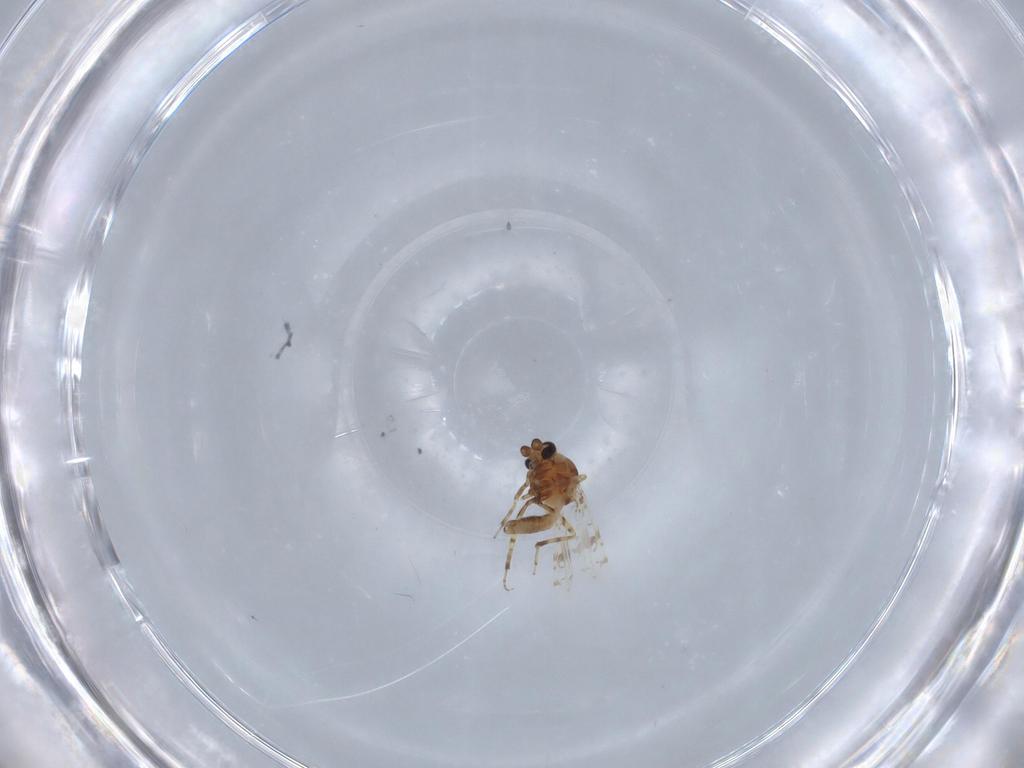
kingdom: Animalia
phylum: Arthropoda
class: Insecta
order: Diptera
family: Ceratopogonidae
